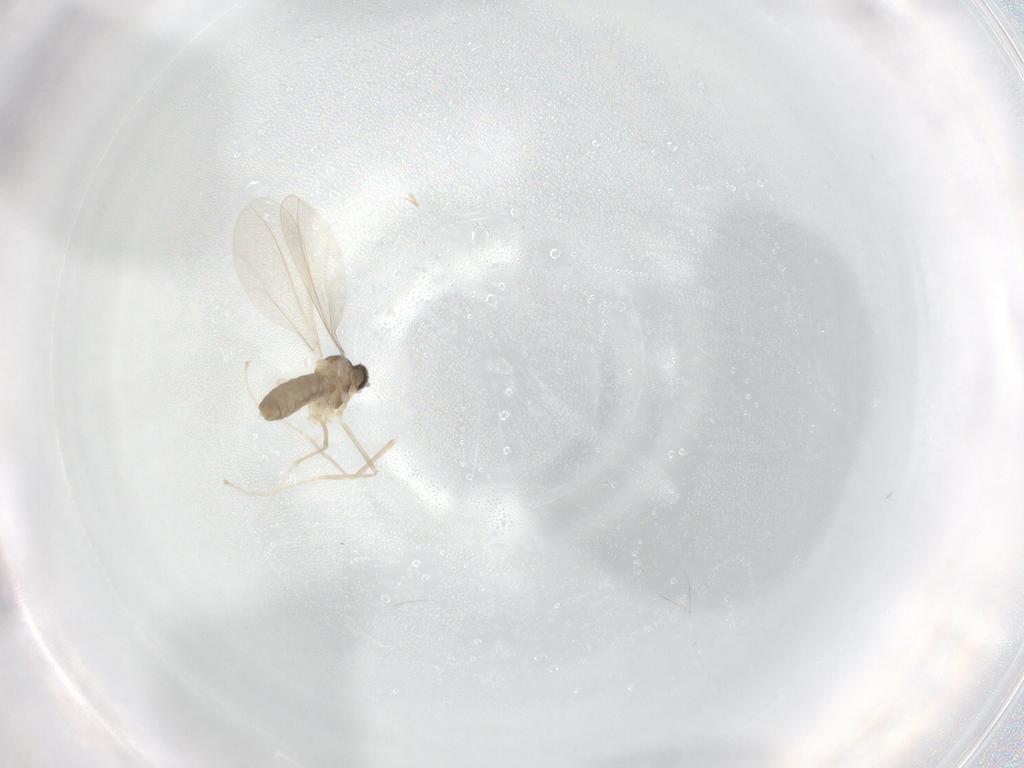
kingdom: Animalia
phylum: Arthropoda
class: Insecta
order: Diptera
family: Cecidomyiidae
